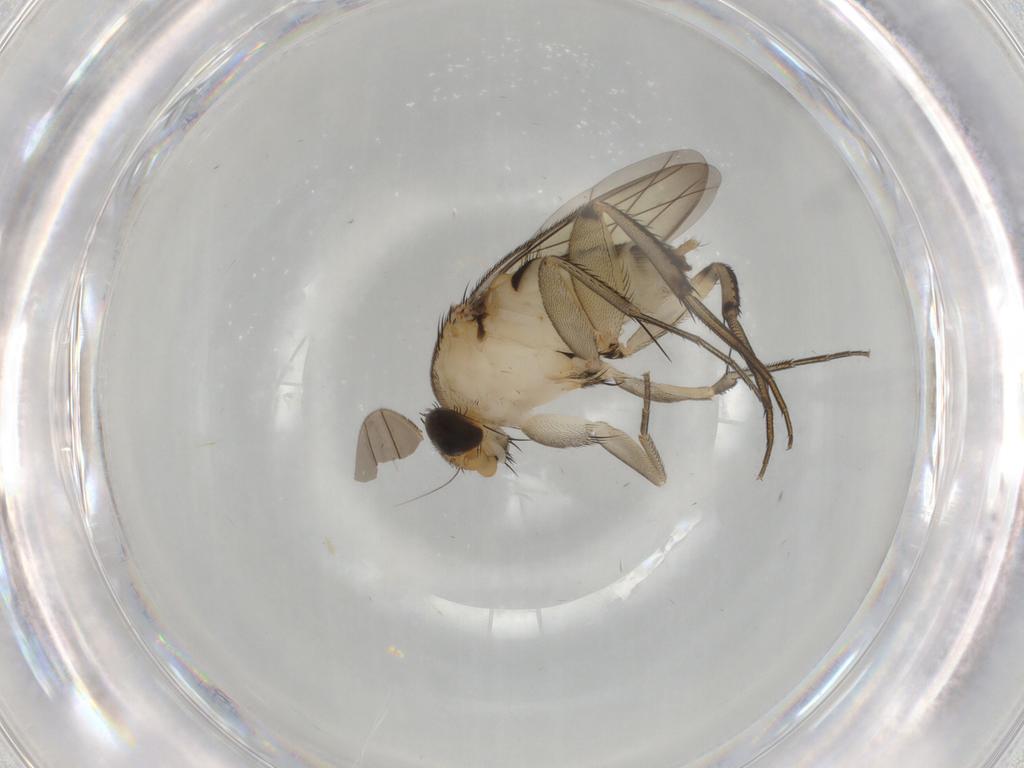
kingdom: Animalia
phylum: Arthropoda
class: Insecta
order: Diptera
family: Phoridae
